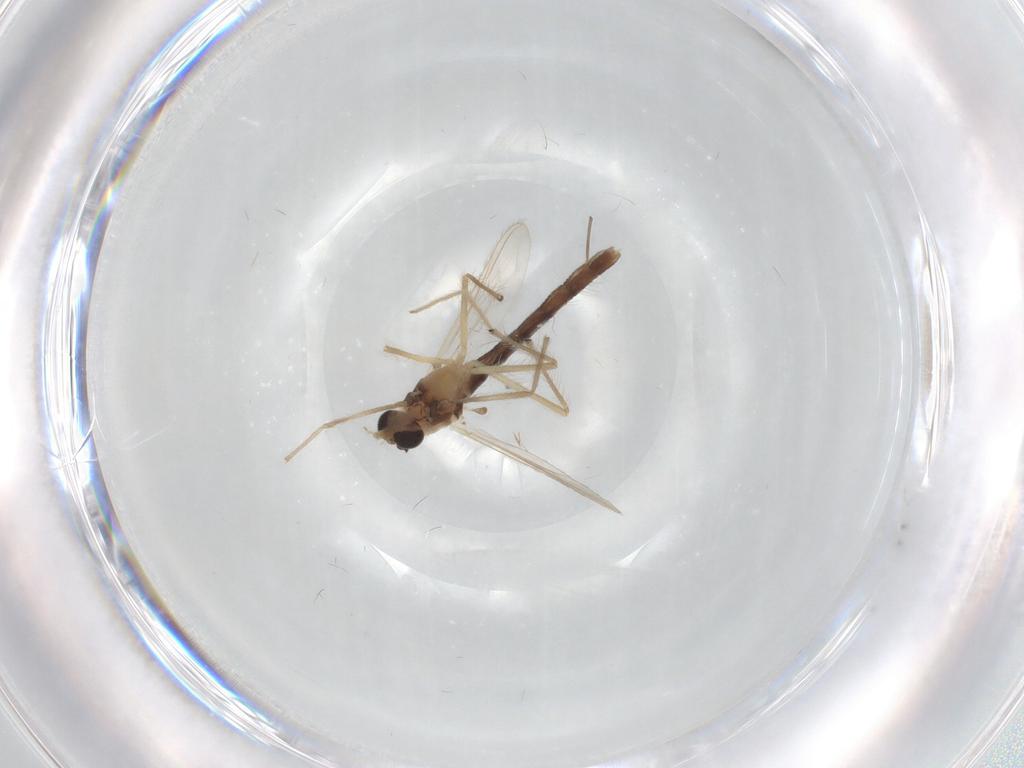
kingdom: Animalia
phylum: Arthropoda
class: Insecta
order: Diptera
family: Chironomidae
